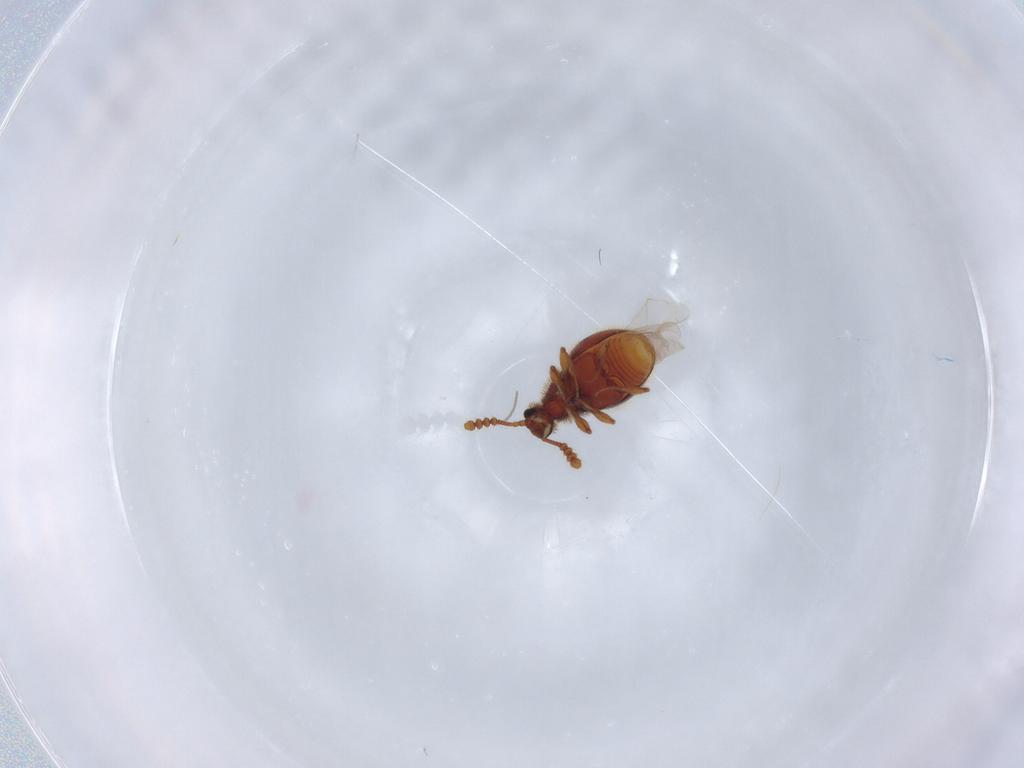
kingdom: Animalia
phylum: Arthropoda
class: Insecta
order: Coleoptera
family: Staphylinidae
